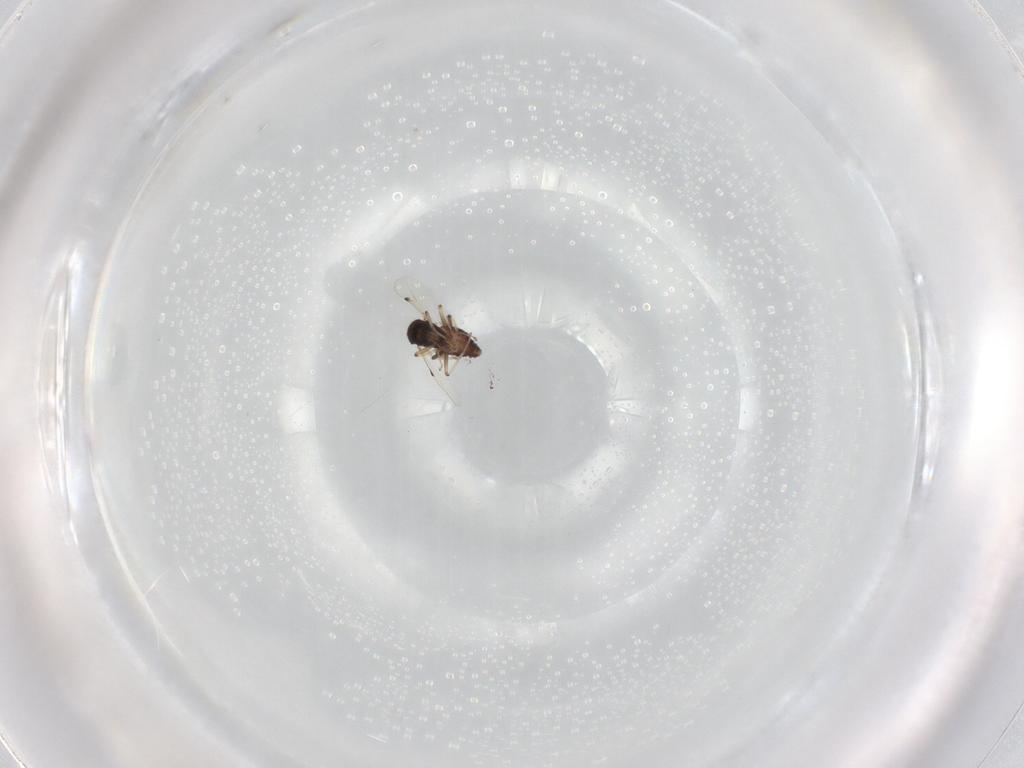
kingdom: Animalia
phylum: Arthropoda
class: Insecta
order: Diptera
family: Ceratopogonidae
